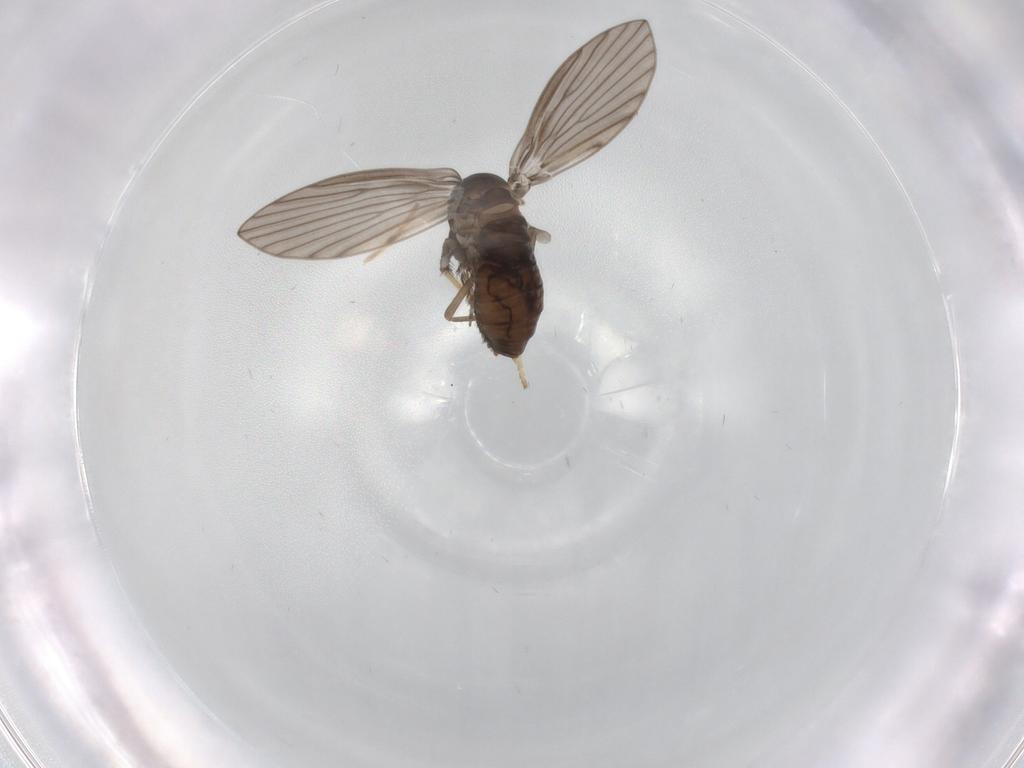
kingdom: Animalia
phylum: Arthropoda
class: Insecta
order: Diptera
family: Psychodidae
